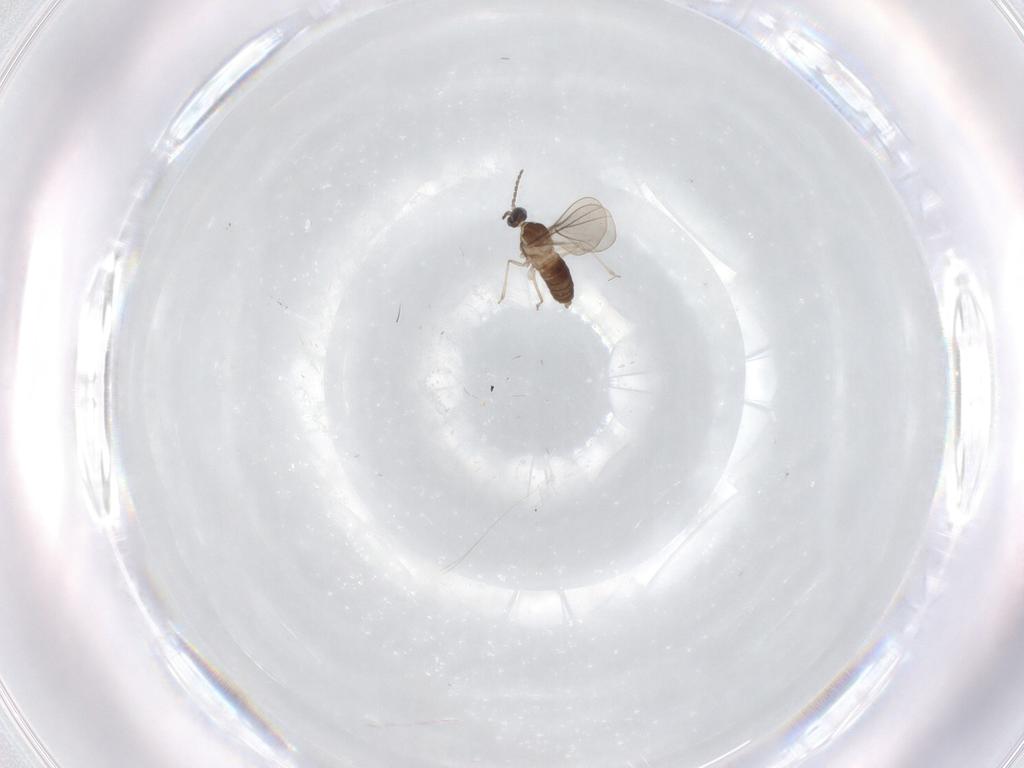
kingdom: Animalia
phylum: Arthropoda
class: Insecta
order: Diptera
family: Cecidomyiidae
